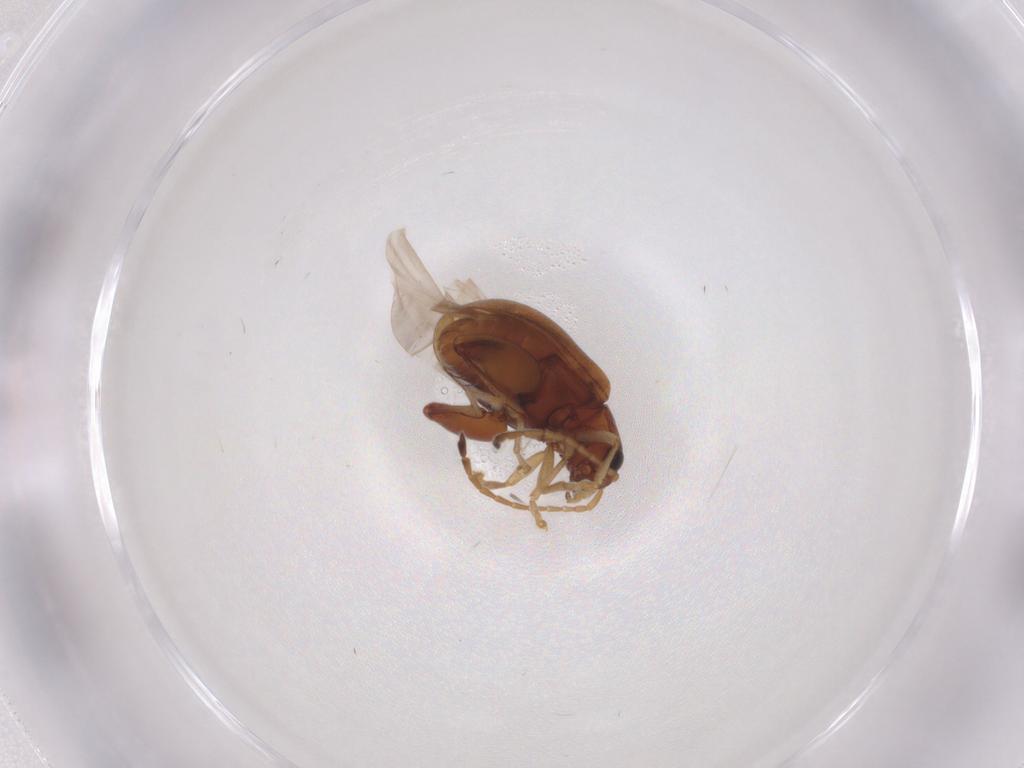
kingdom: Animalia
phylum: Arthropoda
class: Insecta
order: Coleoptera
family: Chrysomelidae
